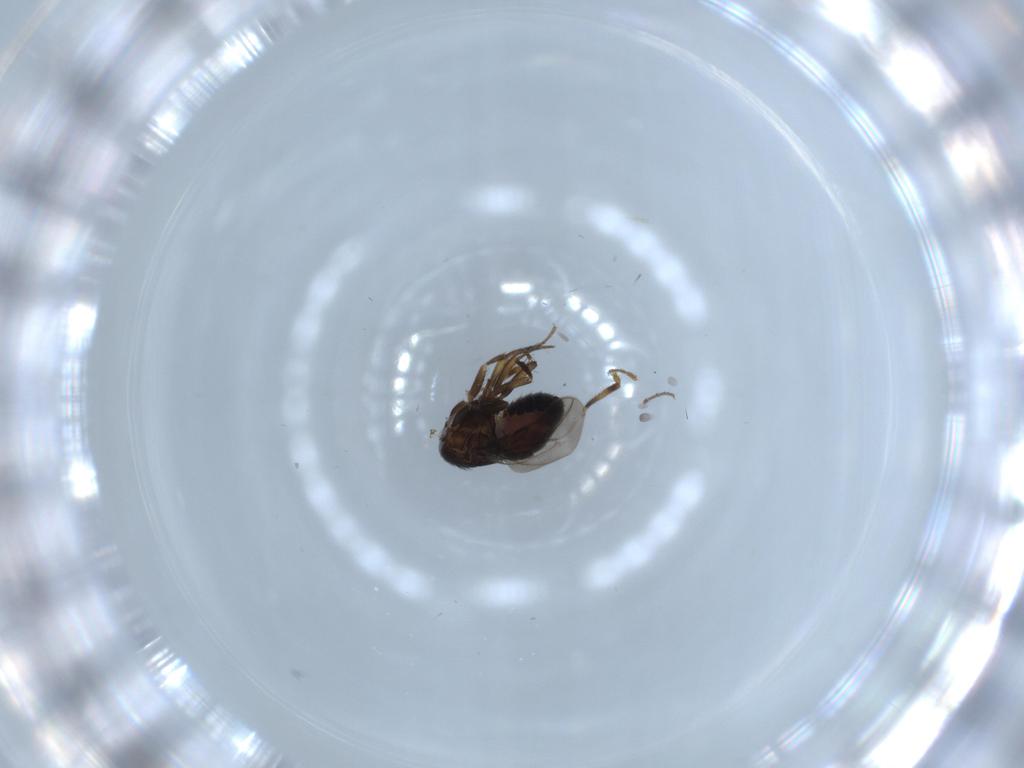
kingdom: Animalia
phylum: Arthropoda
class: Insecta
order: Diptera
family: Sphaeroceridae
